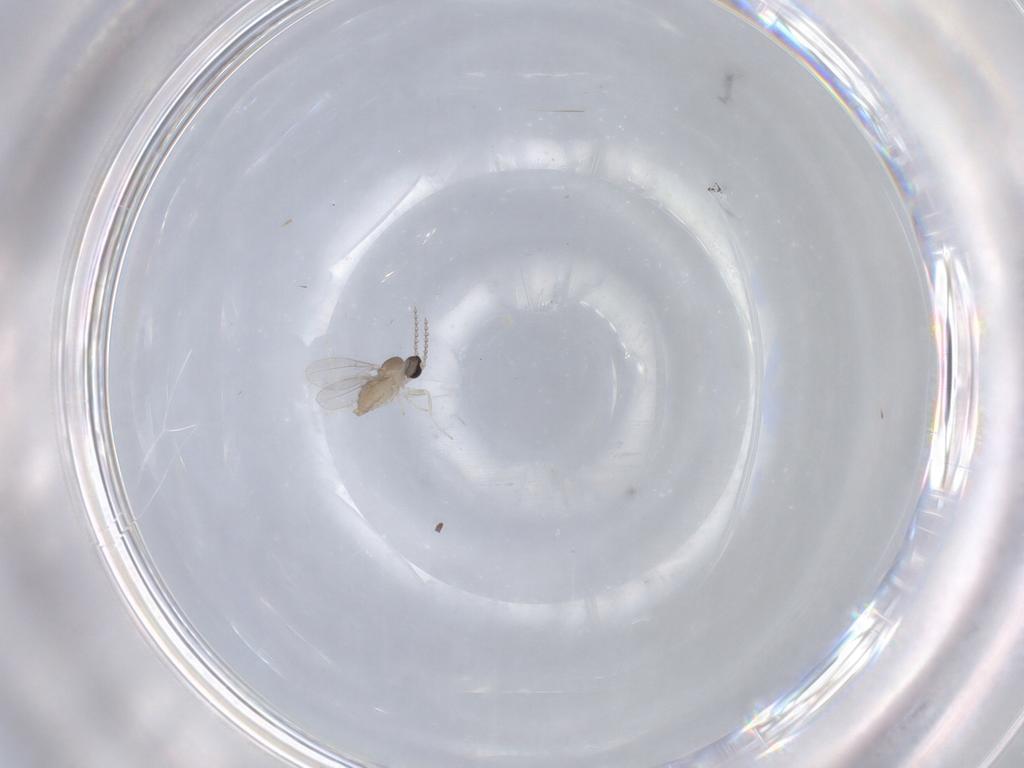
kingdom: Animalia
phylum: Arthropoda
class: Insecta
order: Diptera
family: Cecidomyiidae
